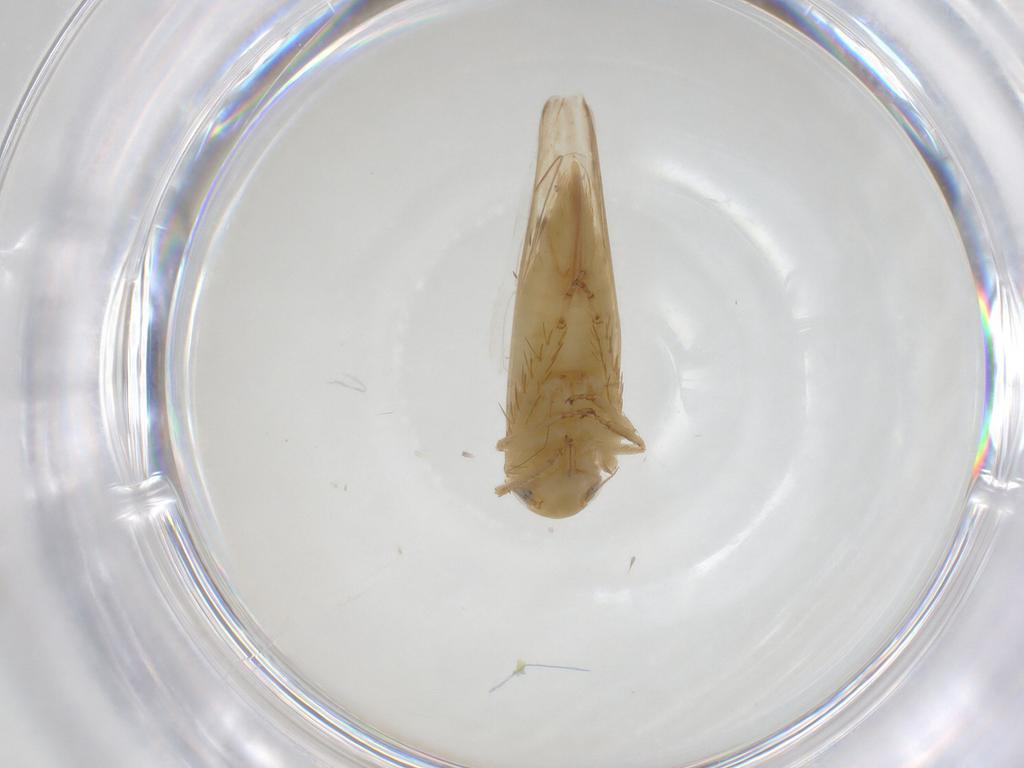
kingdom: Animalia
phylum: Arthropoda
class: Insecta
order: Hemiptera
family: Cicadellidae
